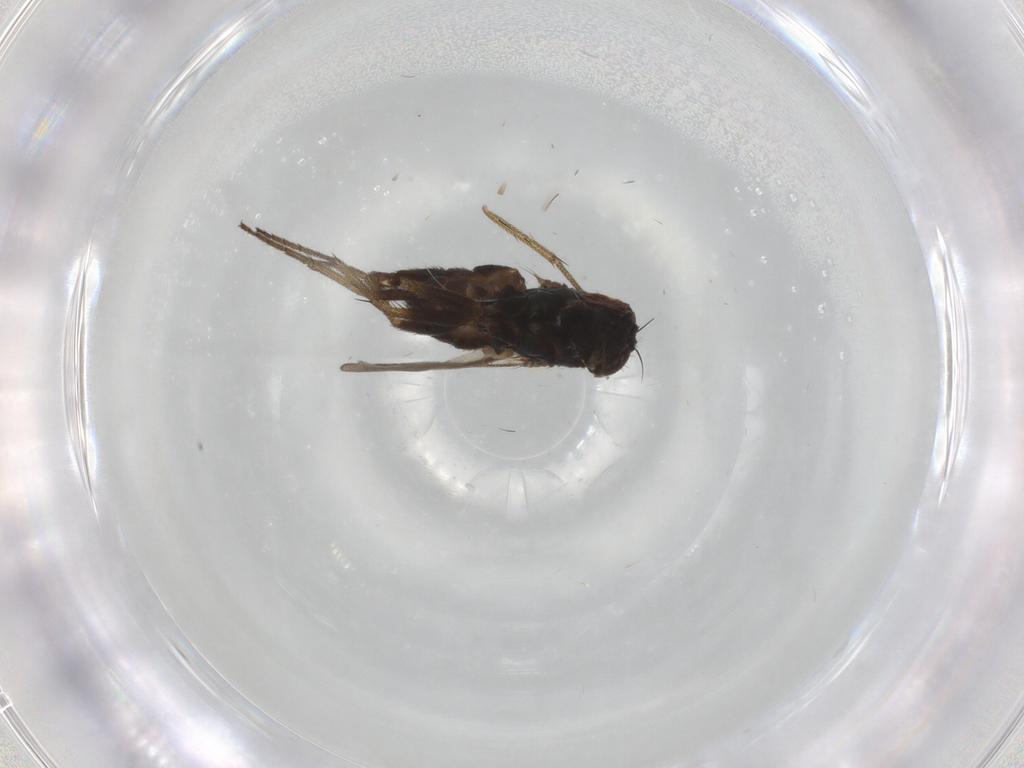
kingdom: Animalia
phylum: Arthropoda
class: Insecta
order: Diptera
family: Cecidomyiidae
